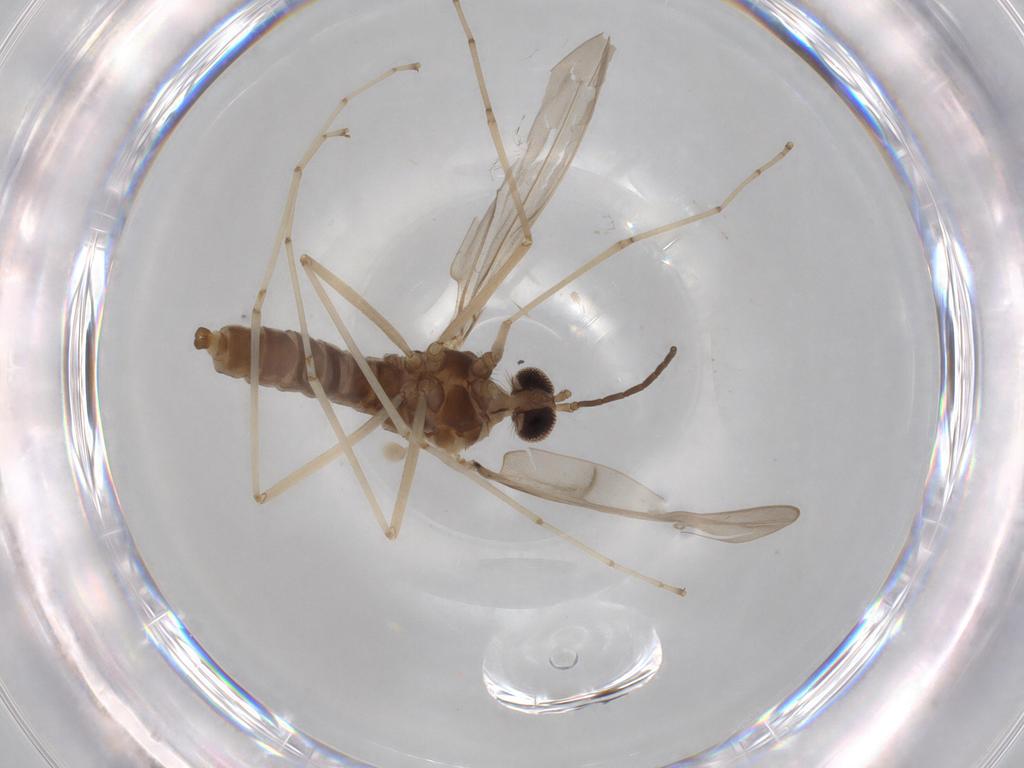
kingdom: Animalia
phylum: Arthropoda
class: Insecta
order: Diptera
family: Cecidomyiidae
